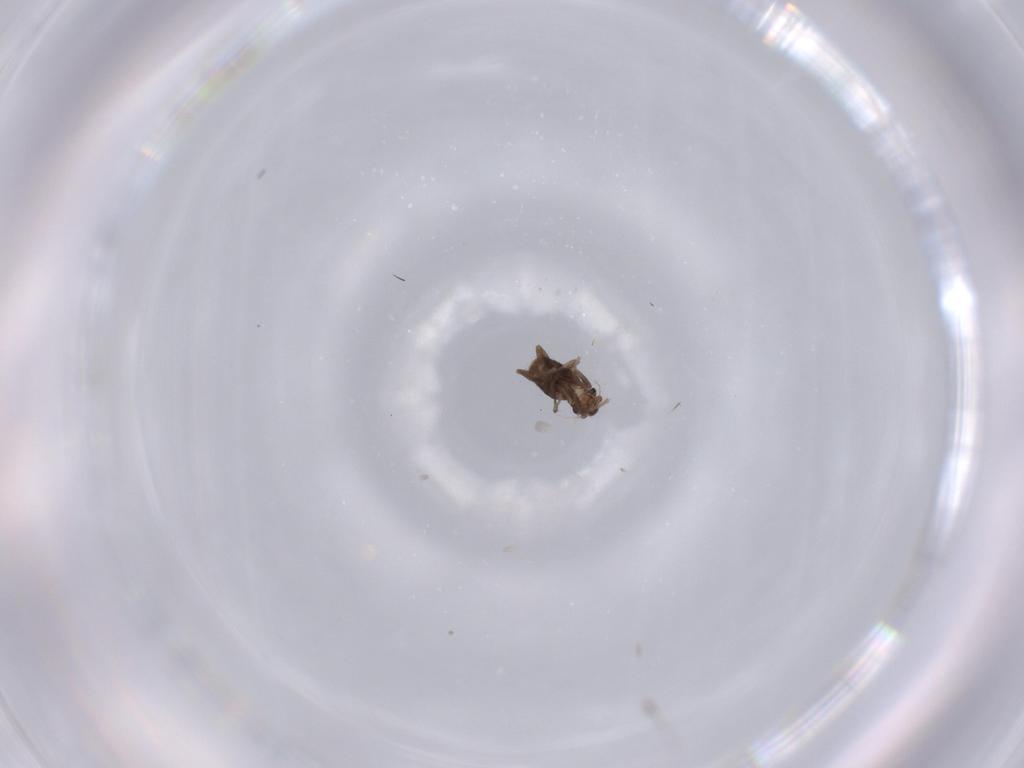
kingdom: Animalia
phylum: Arthropoda
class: Insecta
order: Diptera
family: Phoridae
